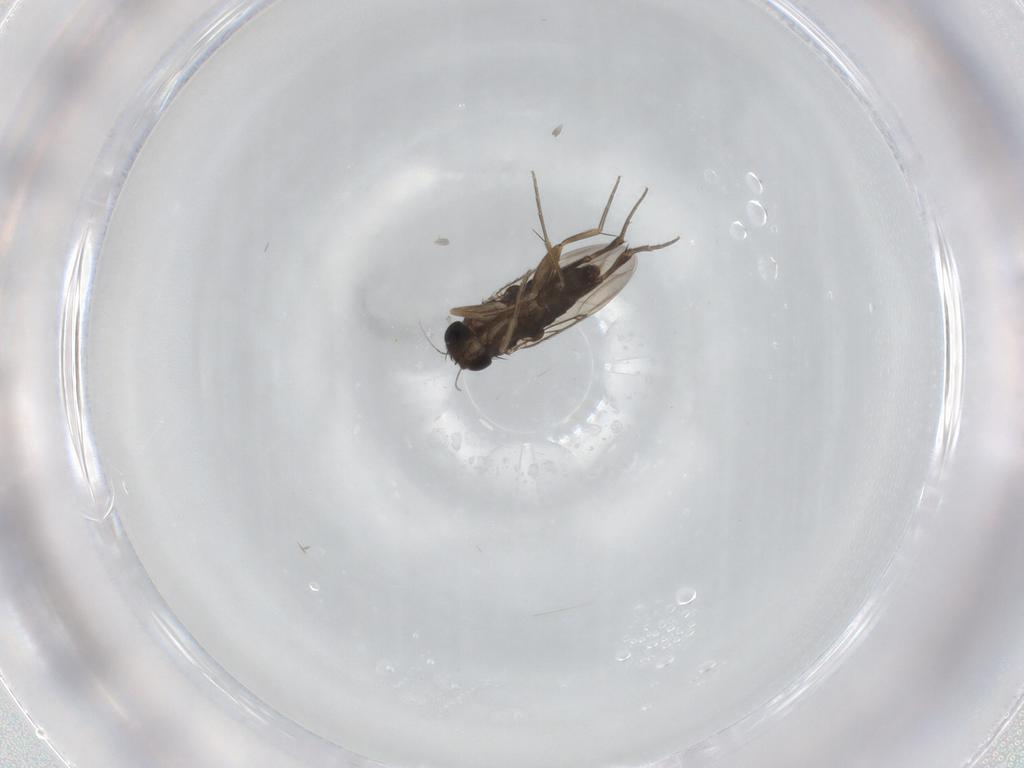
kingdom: Animalia
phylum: Arthropoda
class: Insecta
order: Diptera
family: Phoridae
